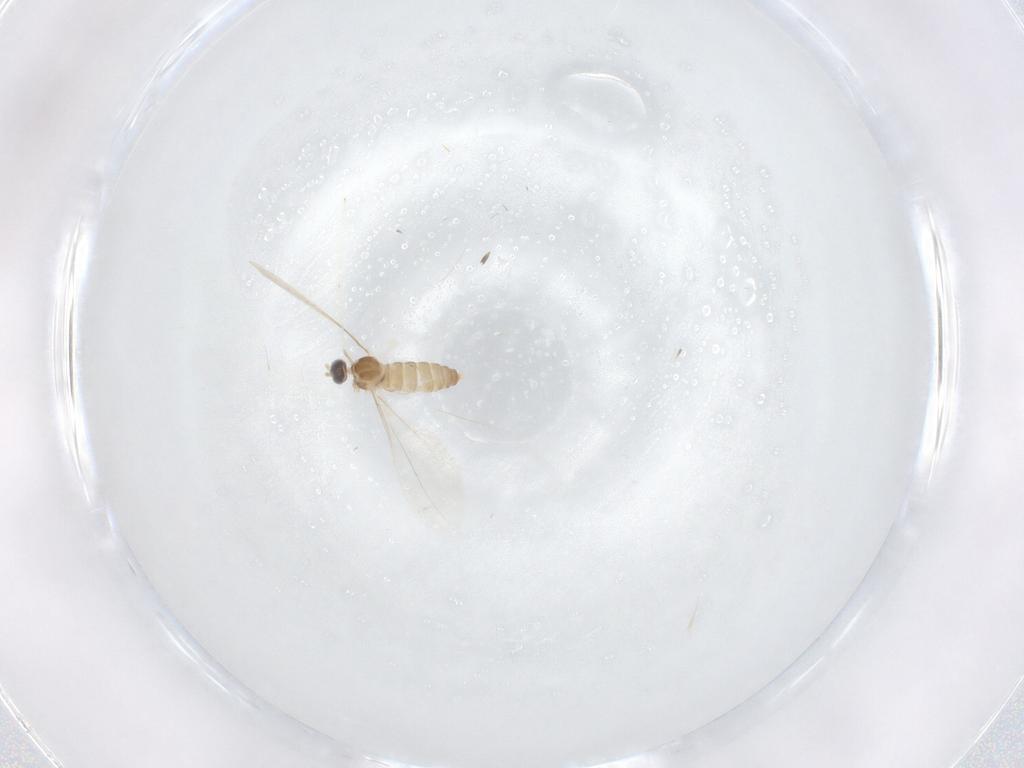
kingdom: Animalia
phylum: Arthropoda
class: Insecta
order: Diptera
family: Cecidomyiidae
